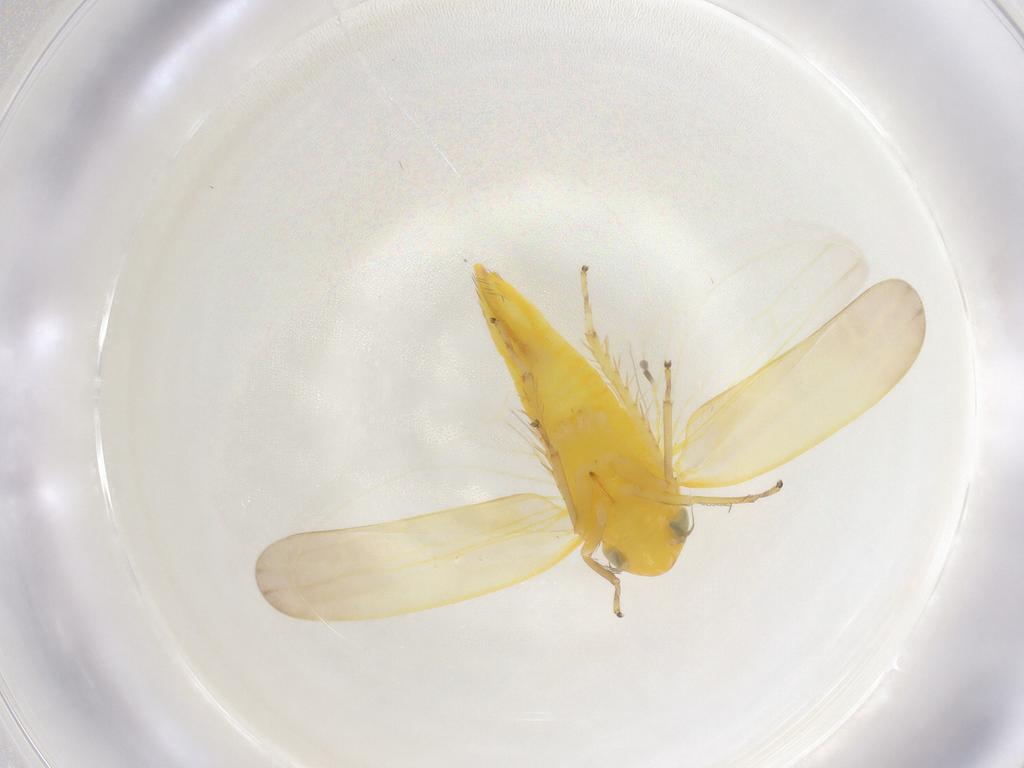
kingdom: Animalia
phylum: Arthropoda
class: Insecta
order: Hemiptera
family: Cicadellidae
